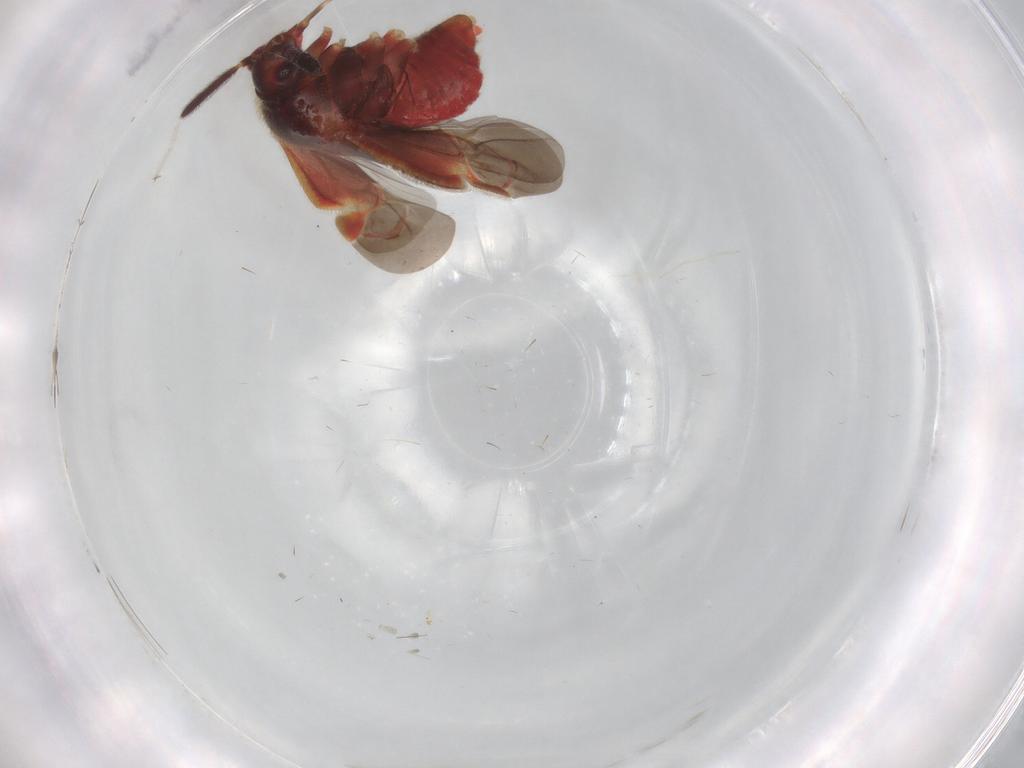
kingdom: Animalia
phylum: Arthropoda
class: Insecta
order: Hemiptera
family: Miridae
